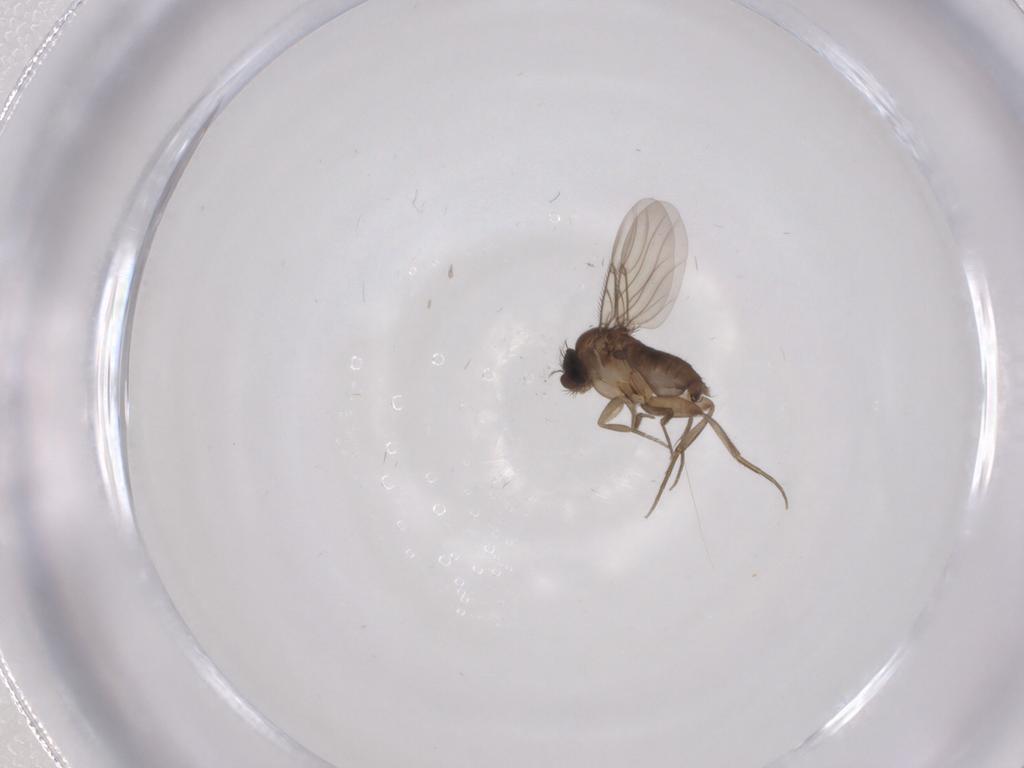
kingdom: Animalia
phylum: Arthropoda
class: Insecta
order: Diptera
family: Phoridae
